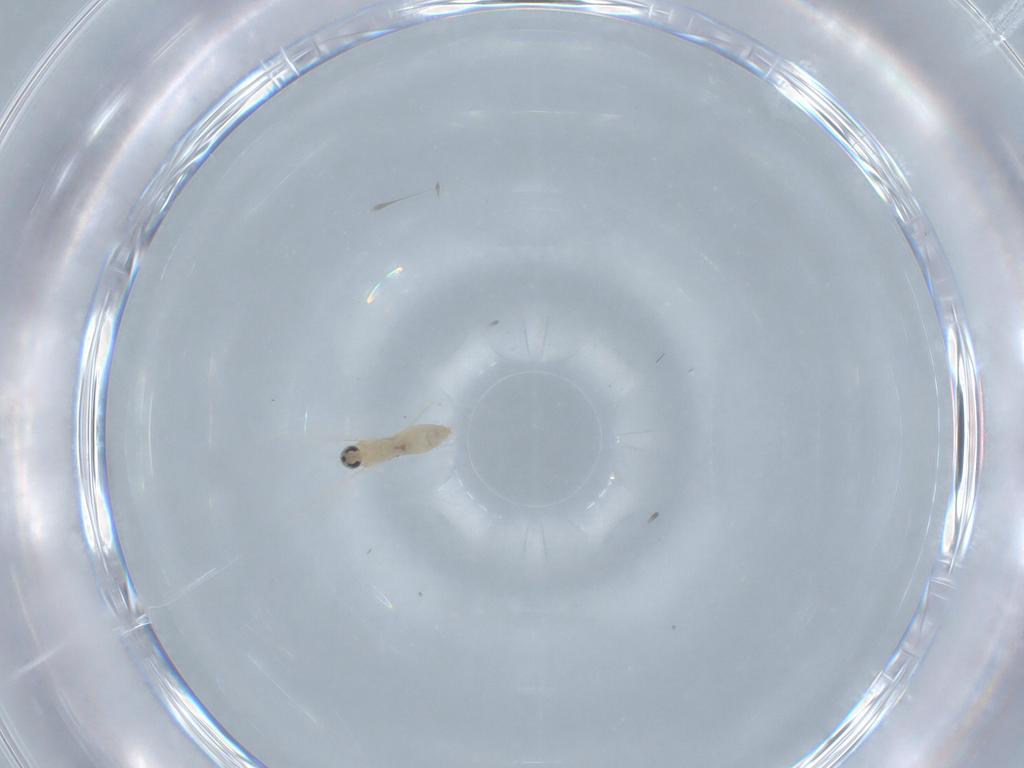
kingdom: Animalia
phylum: Arthropoda
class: Insecta
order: Diptera
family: Cecidomyiidae
